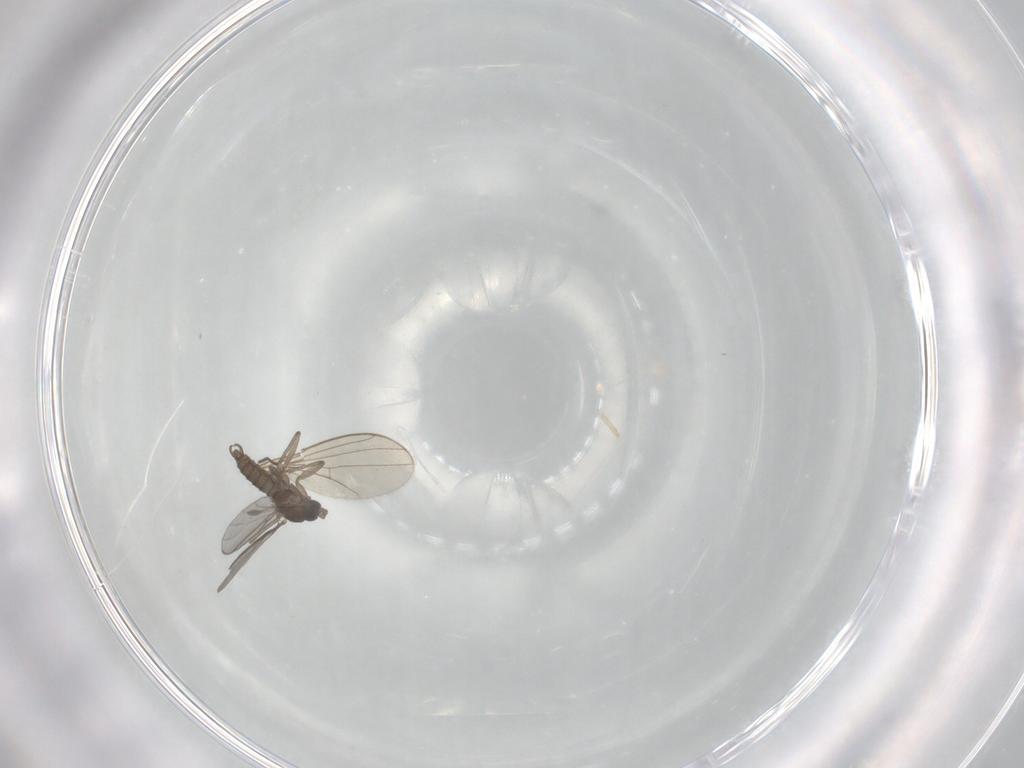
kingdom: Animalia
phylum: Arthropoda
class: Insecta
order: Diptera
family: Sciaridae
